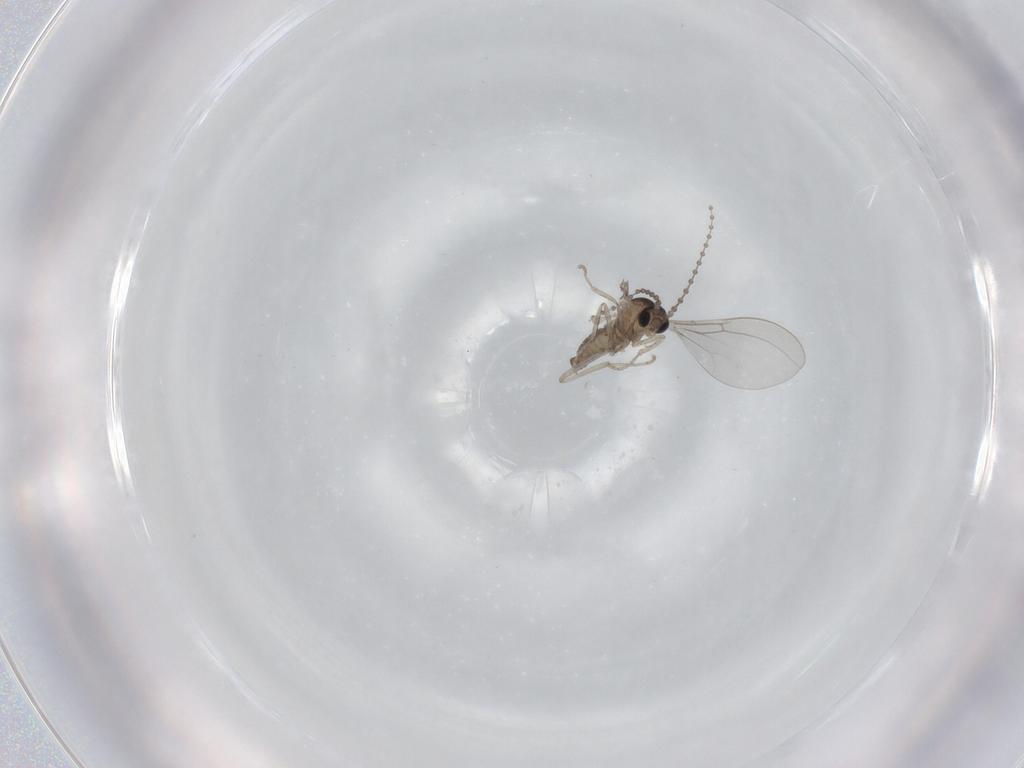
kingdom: Animalia
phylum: Arthropoda
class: Insecta
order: Diptera
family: Cecidomyiidae
